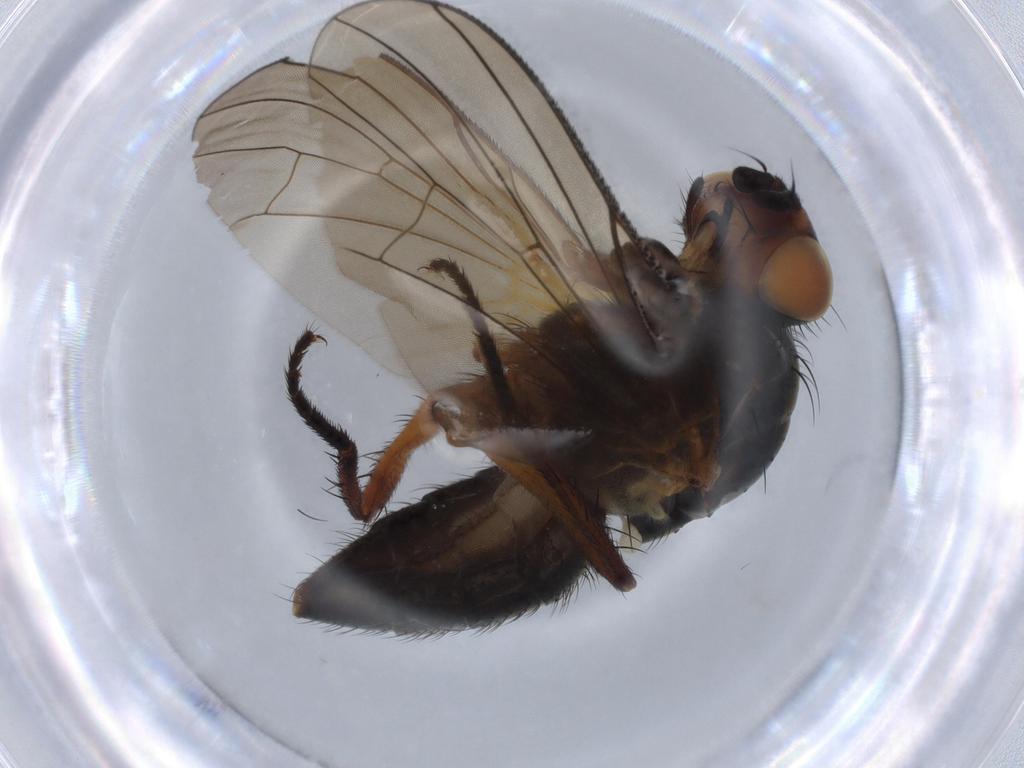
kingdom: Animalia
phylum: Arthropoda
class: Insecta
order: Diptera
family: Anthomyiidae
